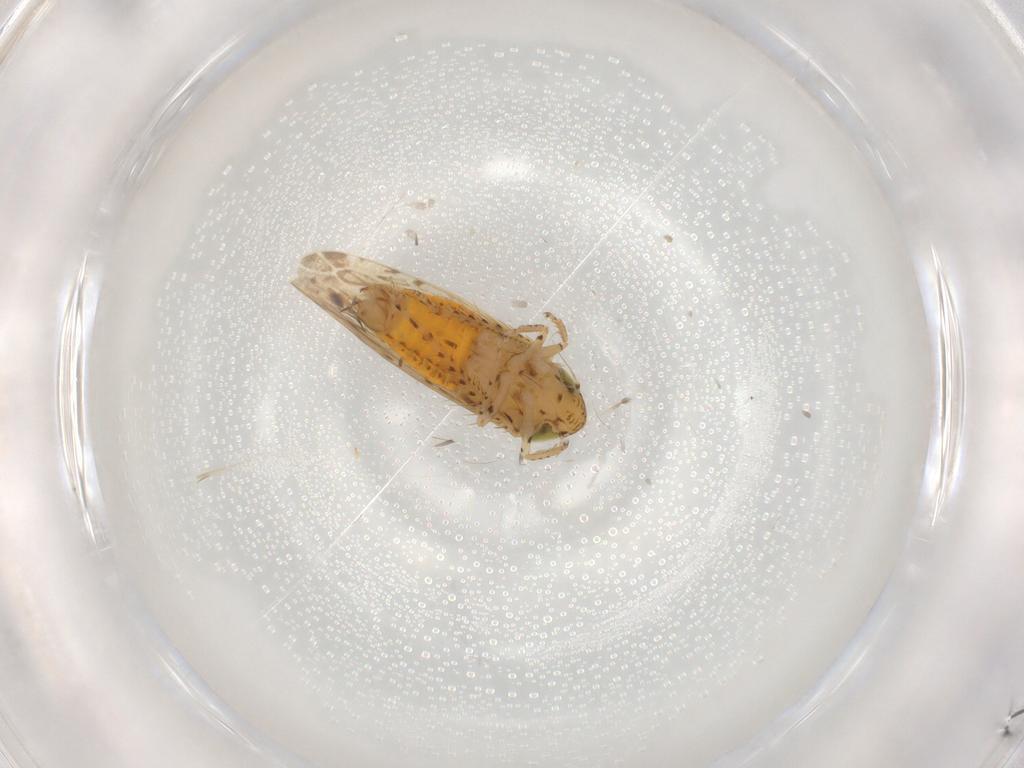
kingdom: Animalia
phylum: Arthropoda
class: Insecta
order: Hemiptera
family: Cicadellidae
